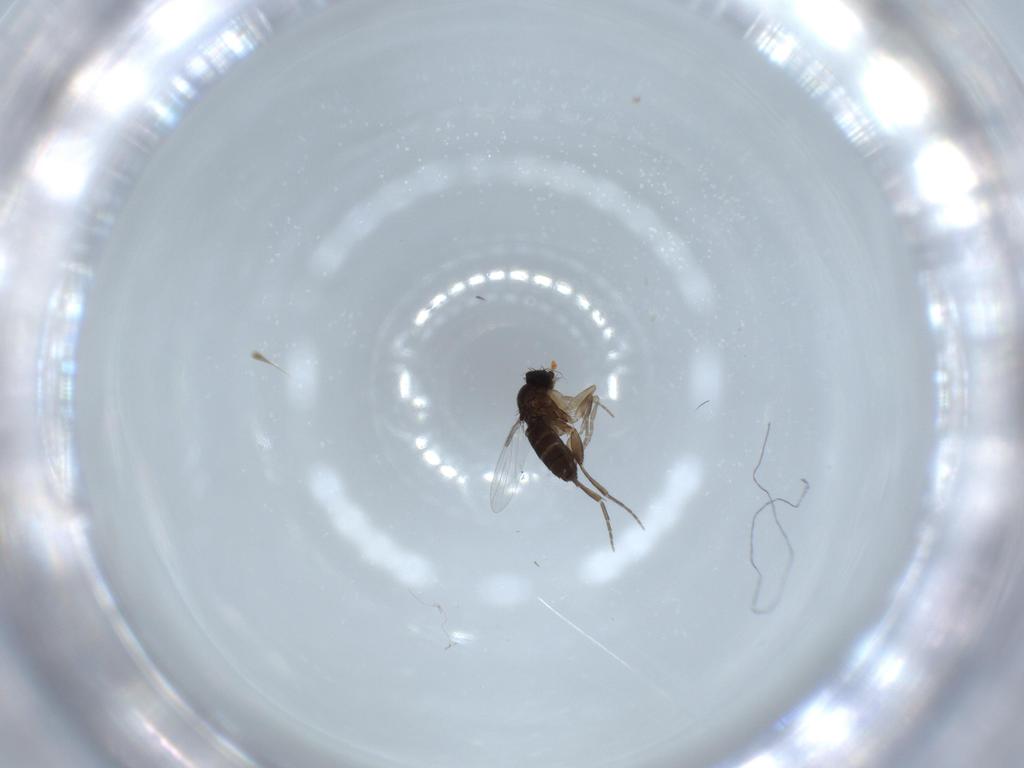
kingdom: Animalia
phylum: Arthropoda
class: Insecta
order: Diptera
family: Phoridae
